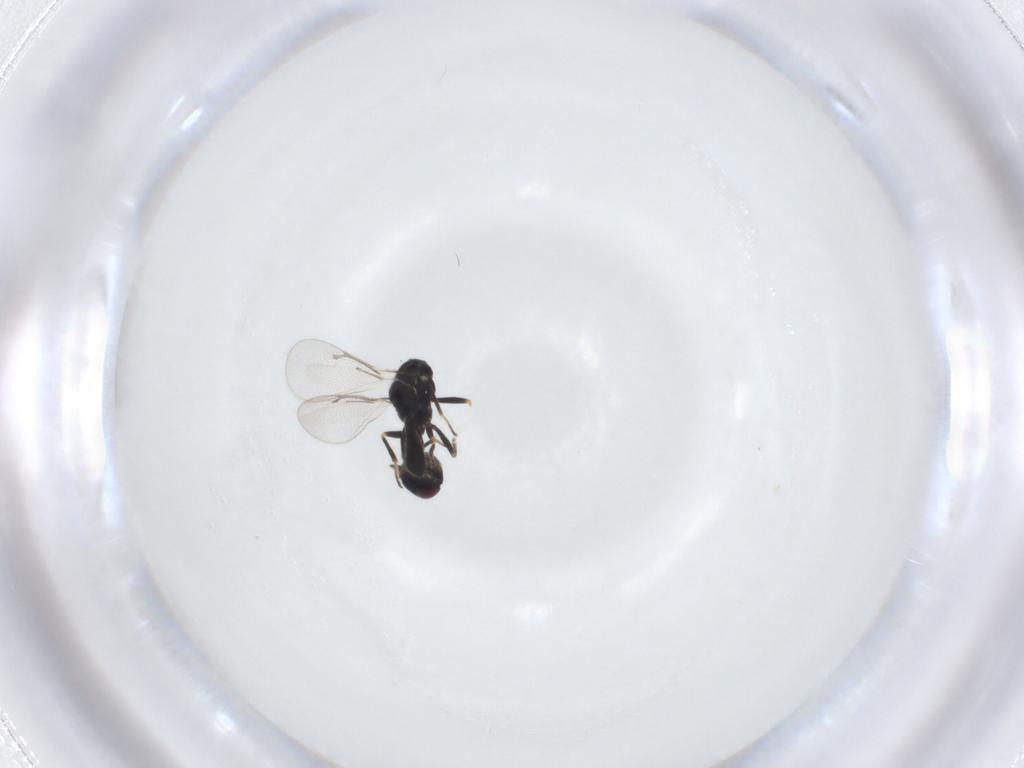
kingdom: Animalia
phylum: Arthropoda
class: Insecta
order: Hymenoptera
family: Eulophidae
